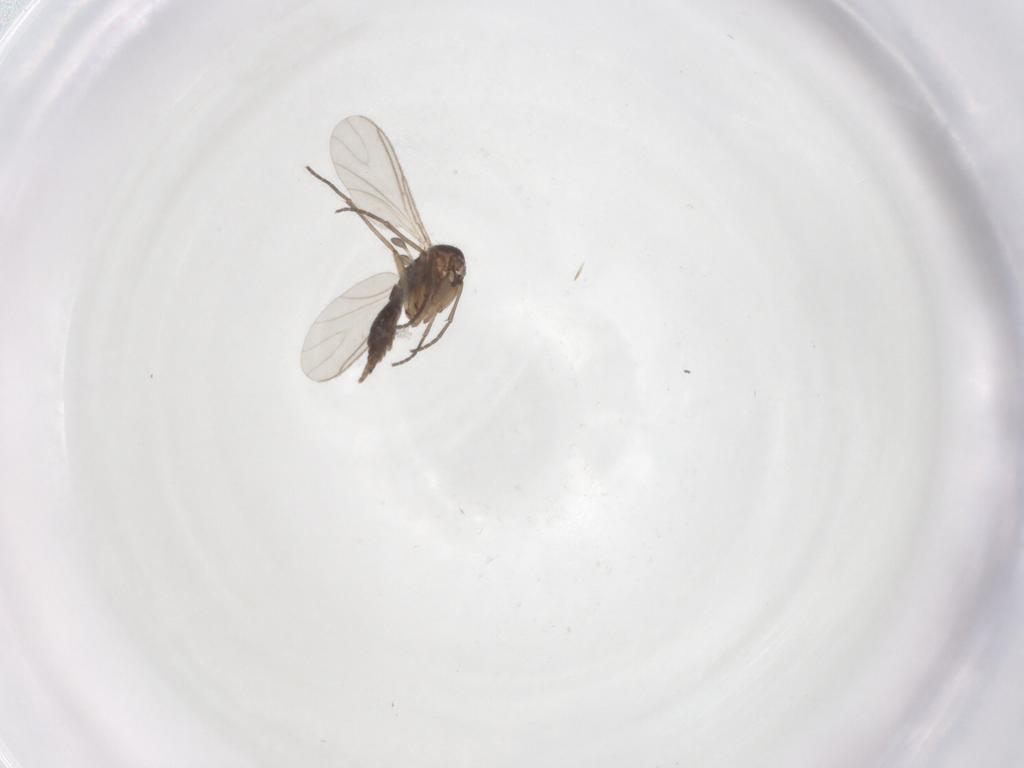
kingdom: Animalia
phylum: Arthropoda
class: Insecta
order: Diptera
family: Sciaridae
